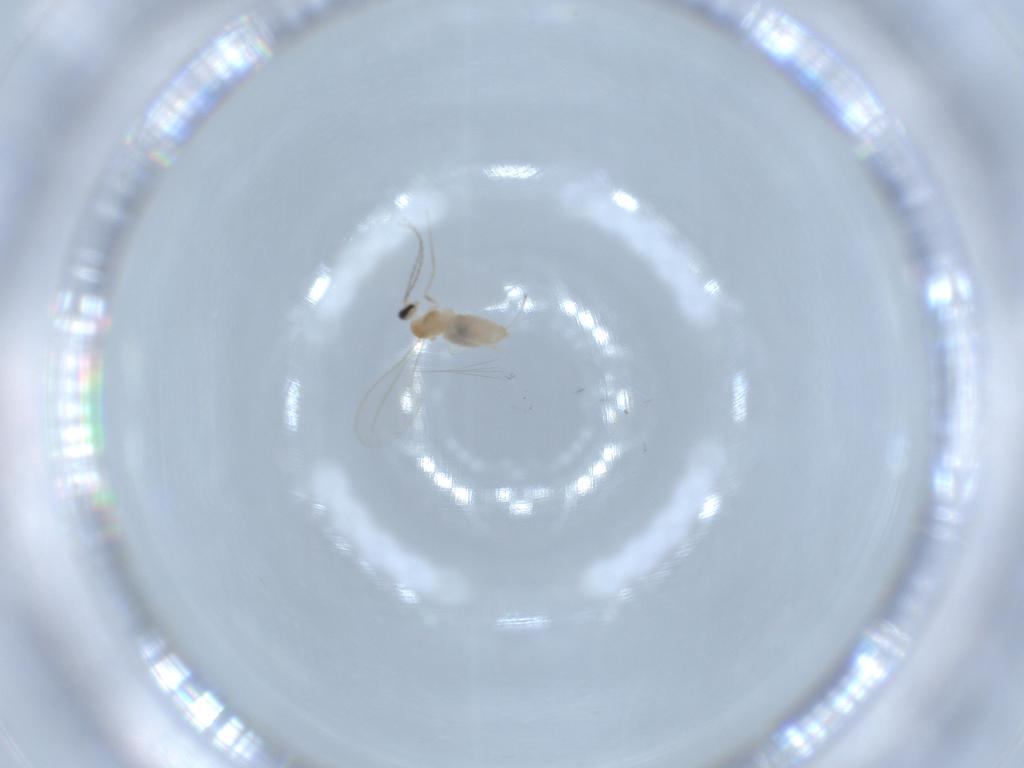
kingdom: Animalia
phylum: Arthropoda
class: Insecta
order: Diptera
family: Cecidomyiidae
